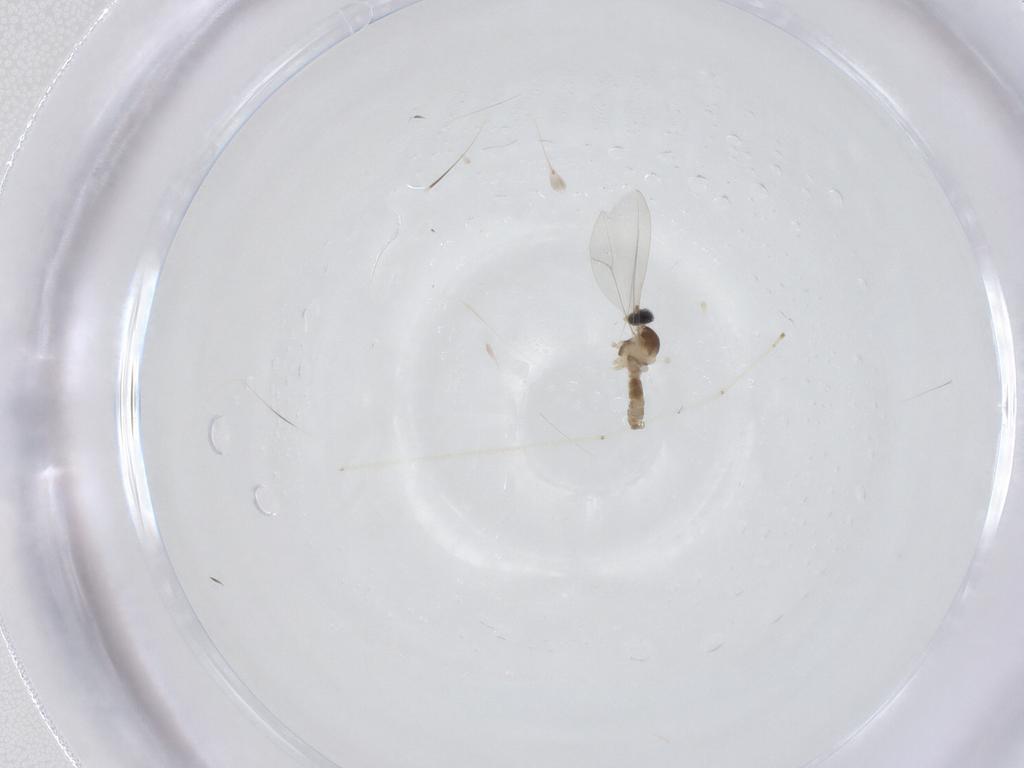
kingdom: Animalia
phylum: Arthropoda
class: Insecta
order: Diptera
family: Cecidomyiidae
